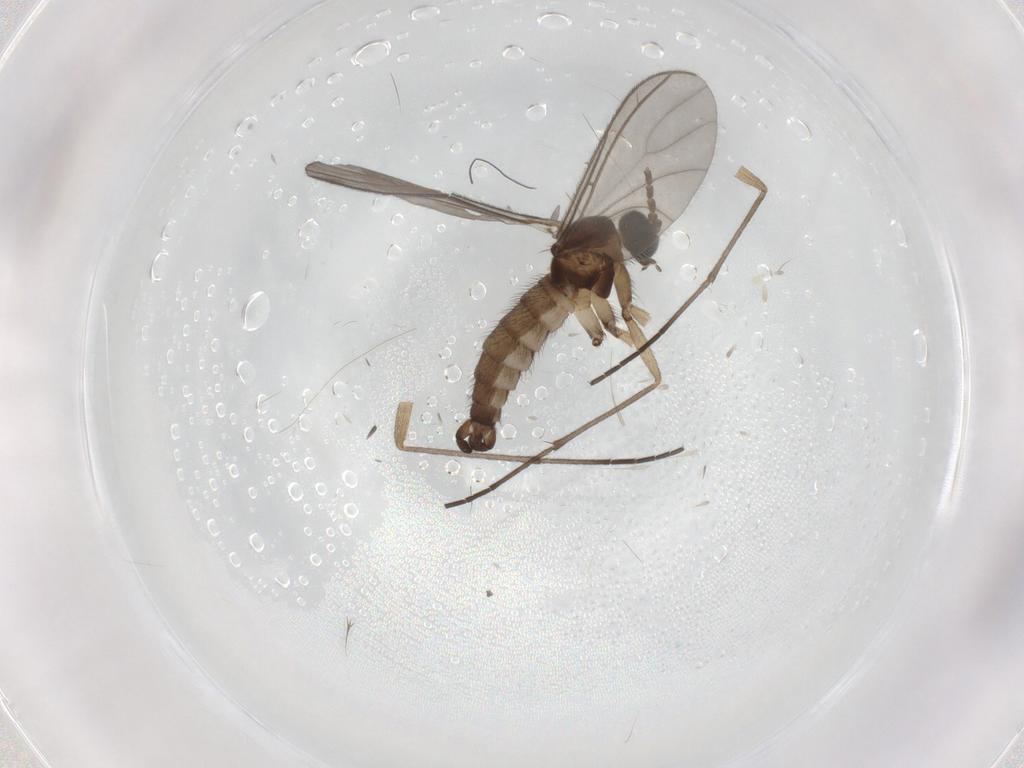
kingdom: Animalia
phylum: Arthropoda
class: Insecta
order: Diptera
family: Sciaridae
